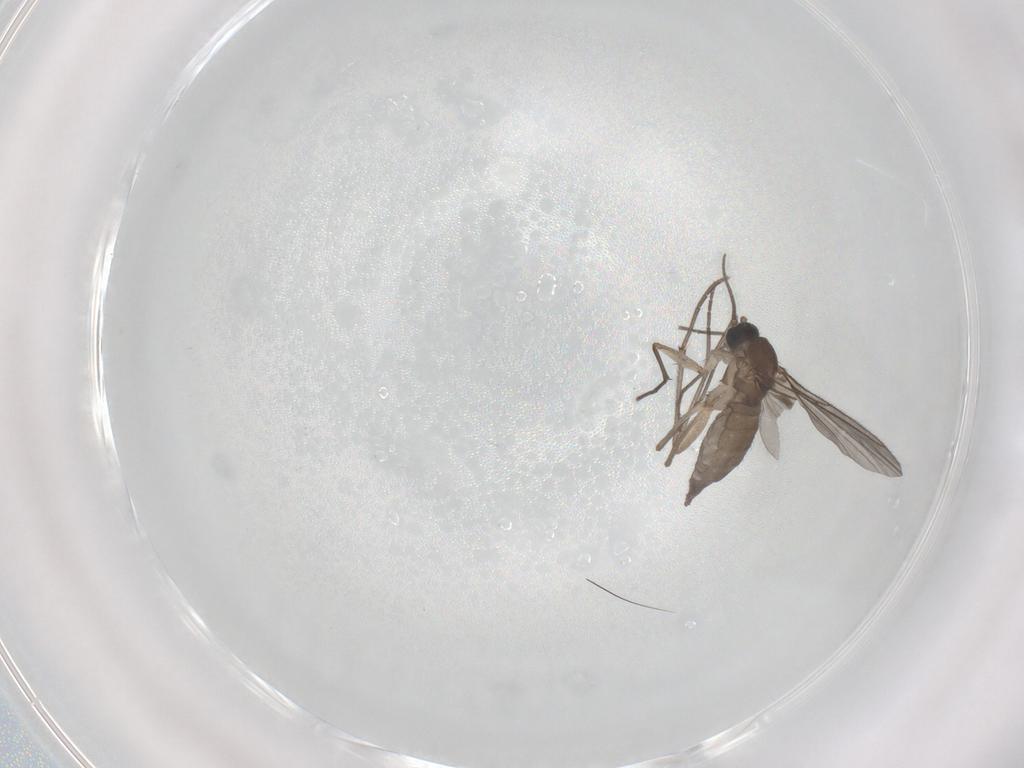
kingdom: Animalia
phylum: Arthropoda
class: Insecta
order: Diptera
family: Sciaridae
